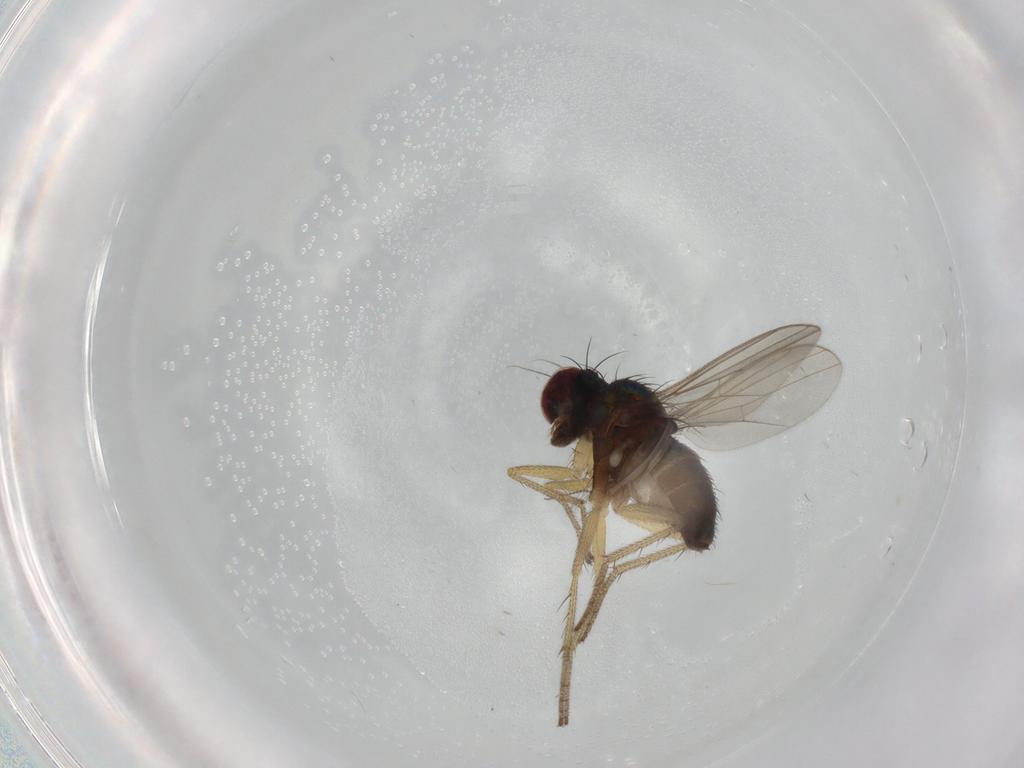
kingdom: Animalia
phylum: Arthropoda
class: Insecta
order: Diptera
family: Dolichopodidae
